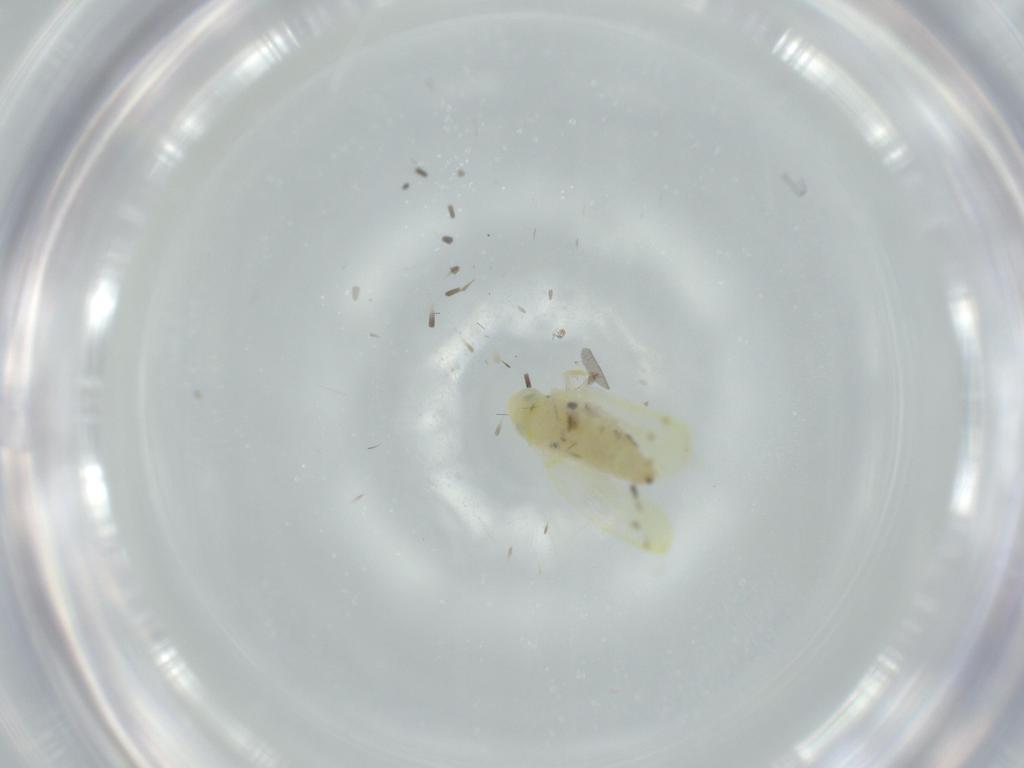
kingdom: Animalia
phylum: Arthropoda
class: Insecta
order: Hemiptera
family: Cicadellidae
